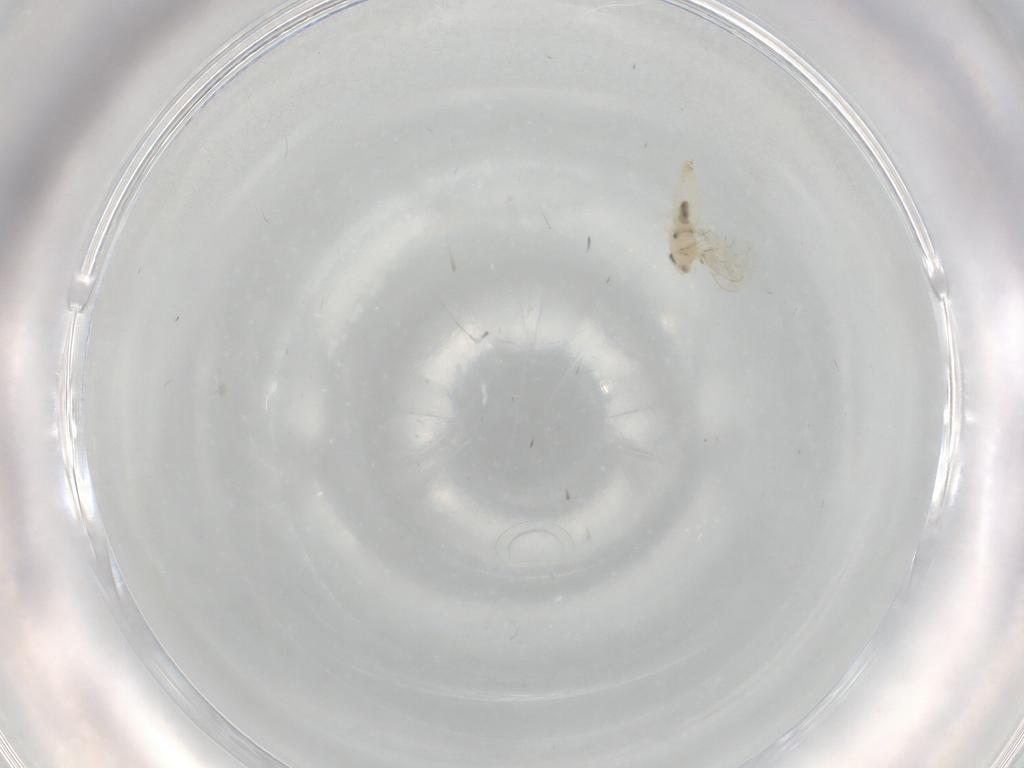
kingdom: Animalia
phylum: Arthropoda
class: Insecta
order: Diptera
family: Cecidomyiidae
